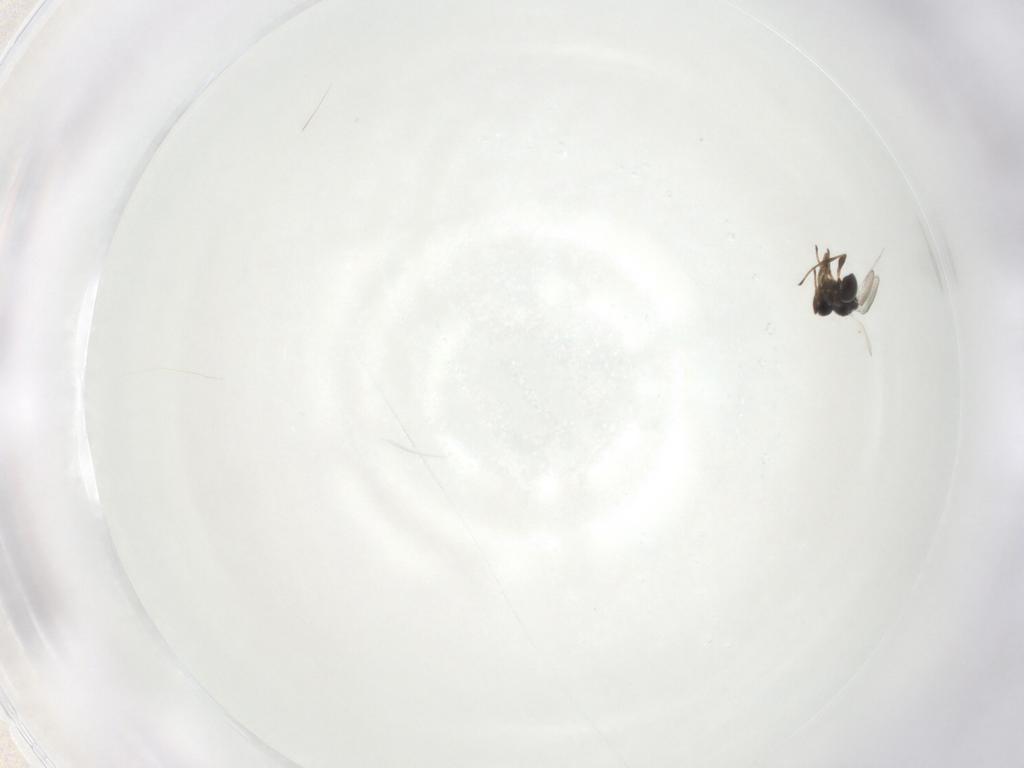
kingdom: Animalia
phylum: Arthropoda
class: Insecta
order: Hymenoptera
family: Platygastridae
